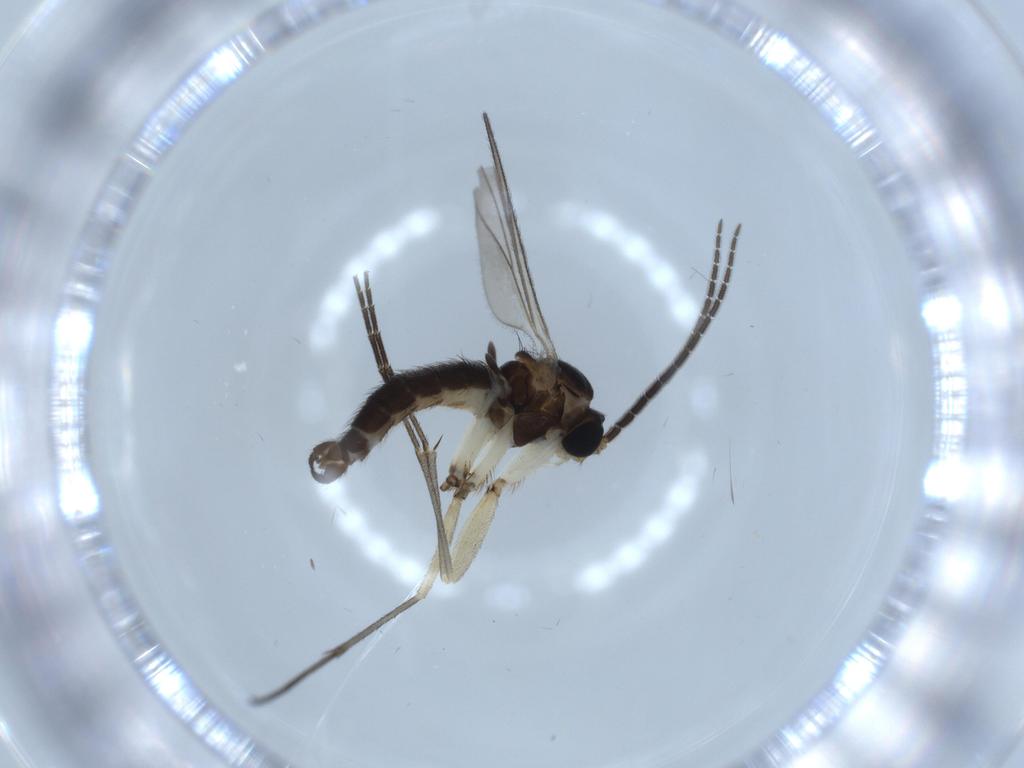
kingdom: Animalia
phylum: Arthropoda
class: Insecta
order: Diptera
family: Sciaridae
